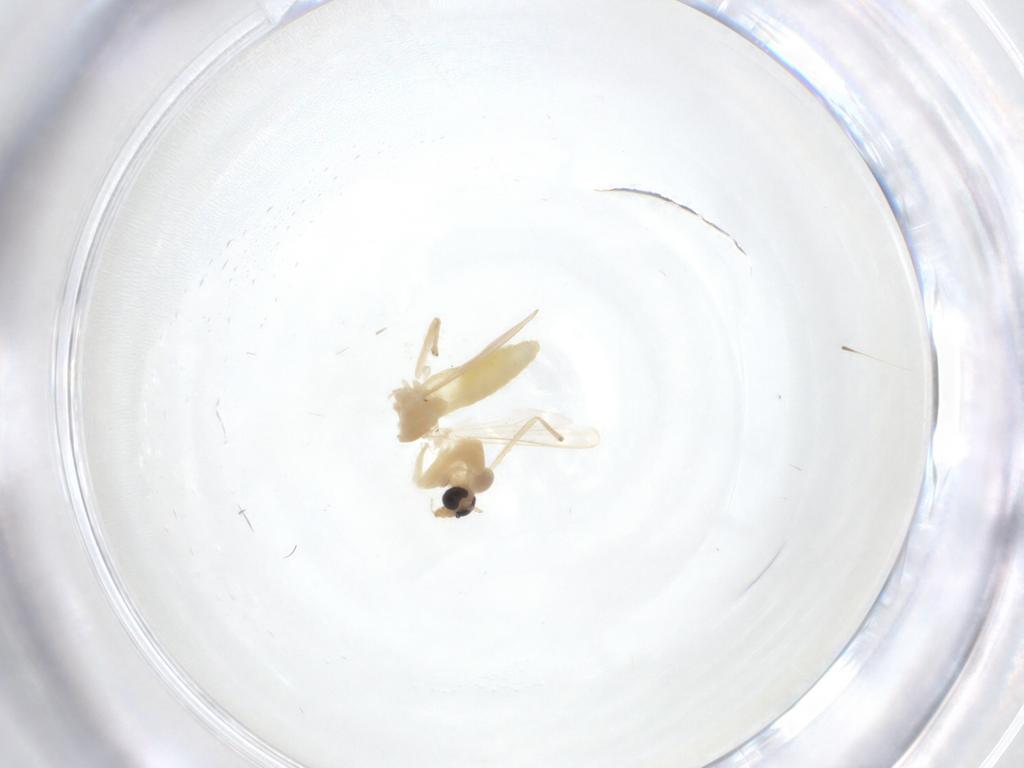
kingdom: Animalia
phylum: Arthropoda
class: Insecta
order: Diptera
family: Chironomidae
